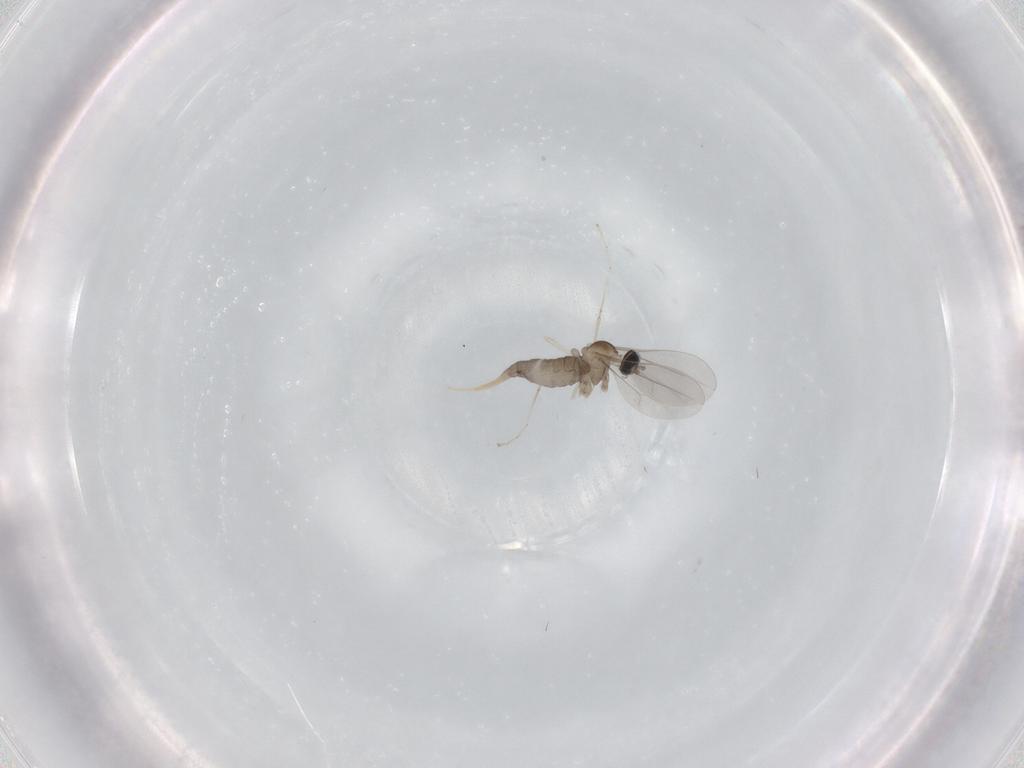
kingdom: Animalia
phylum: Arthropoda
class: Insecta
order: Diptera
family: Cecidomyiidae
